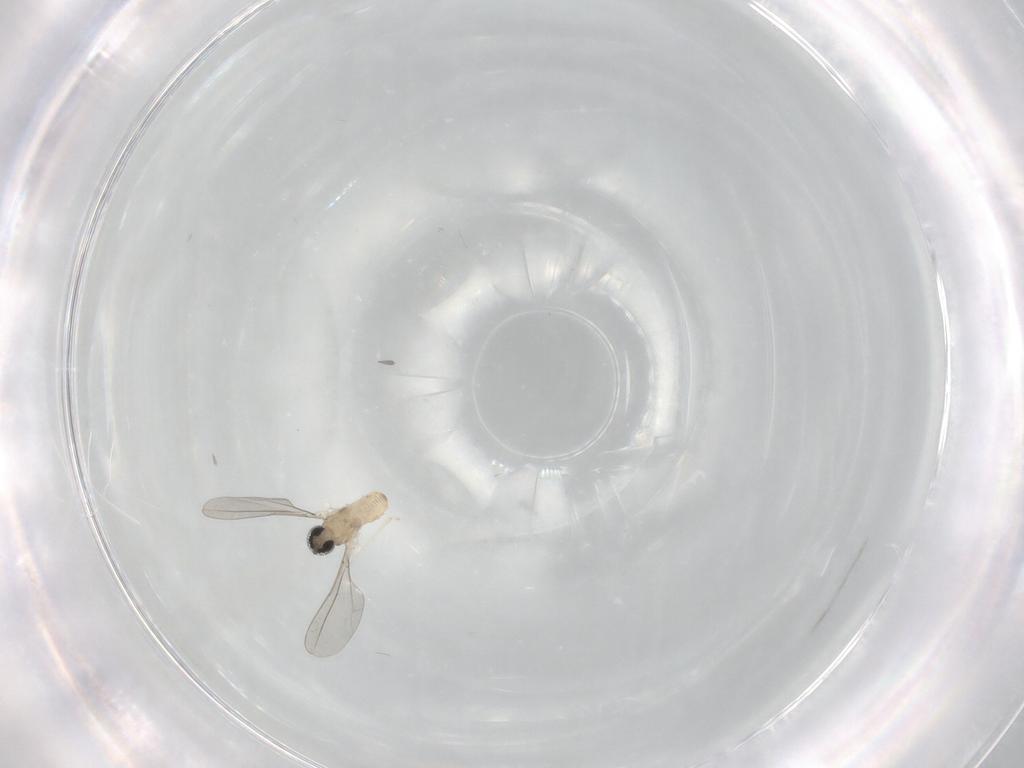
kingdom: Animalia
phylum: Arthropoda
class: Insecta
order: Diptera
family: Cecidomyiidae
